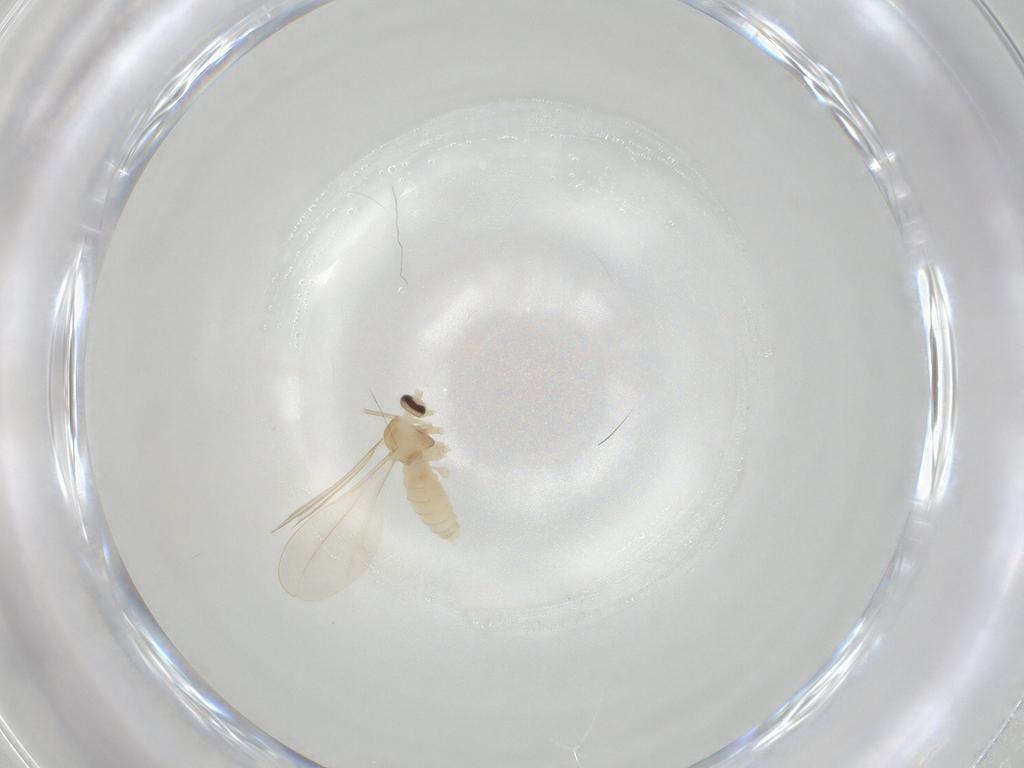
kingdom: Animalia
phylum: Arthropoda
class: Insecta
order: Diptera
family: Cecidomyiidae
